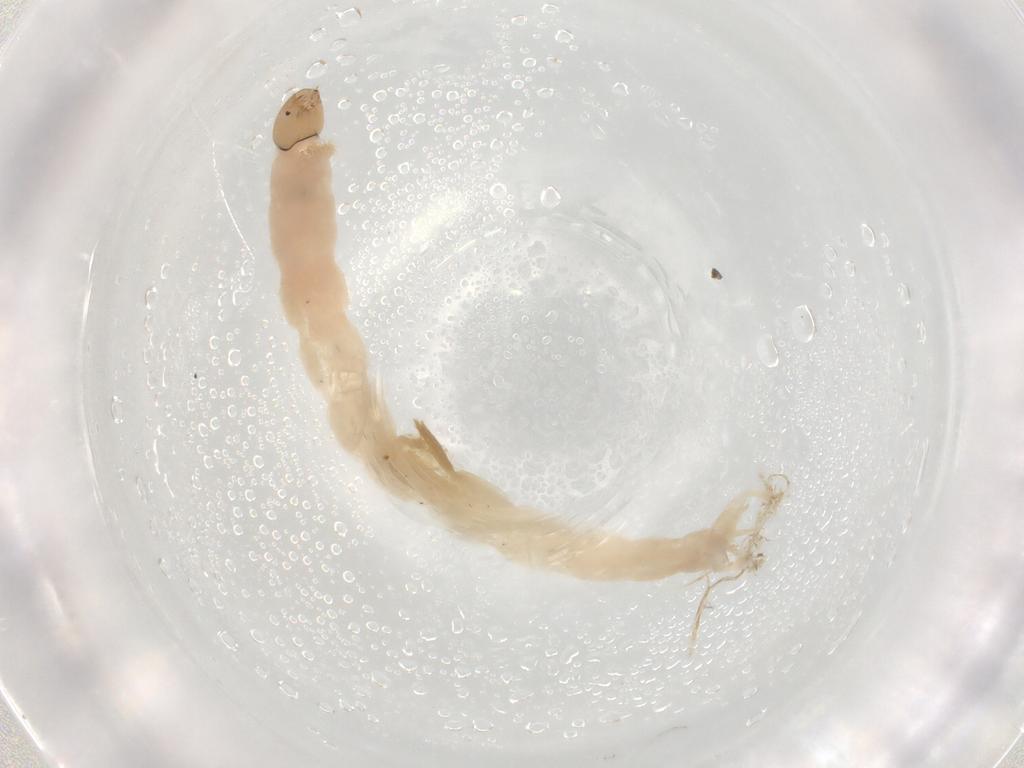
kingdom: Animalia
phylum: Arthropoda
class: Insecta
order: Diptera
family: Chironomidae
